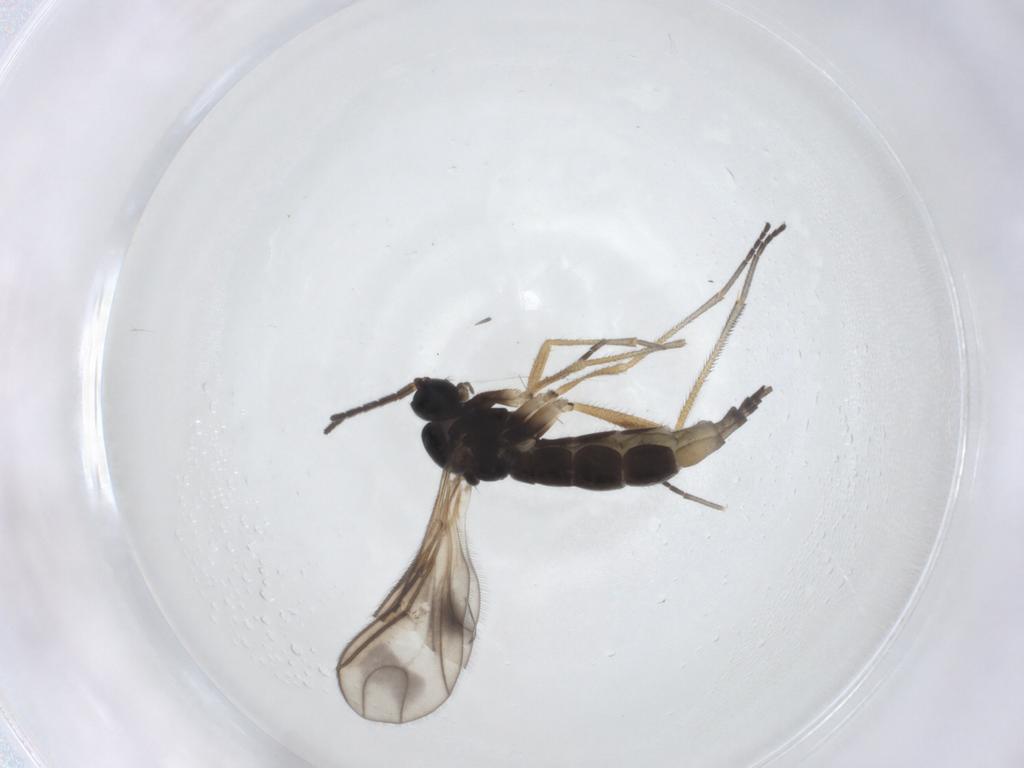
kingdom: Animalia
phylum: Arthropoda
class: Insecta
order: Diptera
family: Sciaridae
